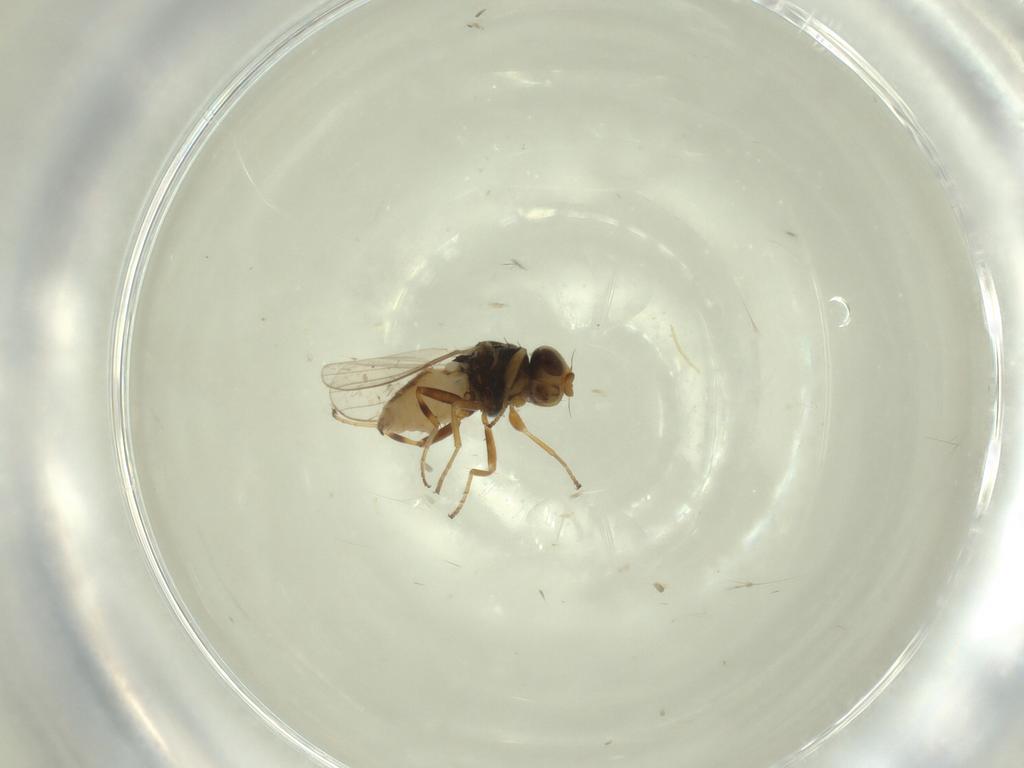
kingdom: Animalia
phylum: Arthropoda
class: Insecta
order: Diptera
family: Chloropidae
